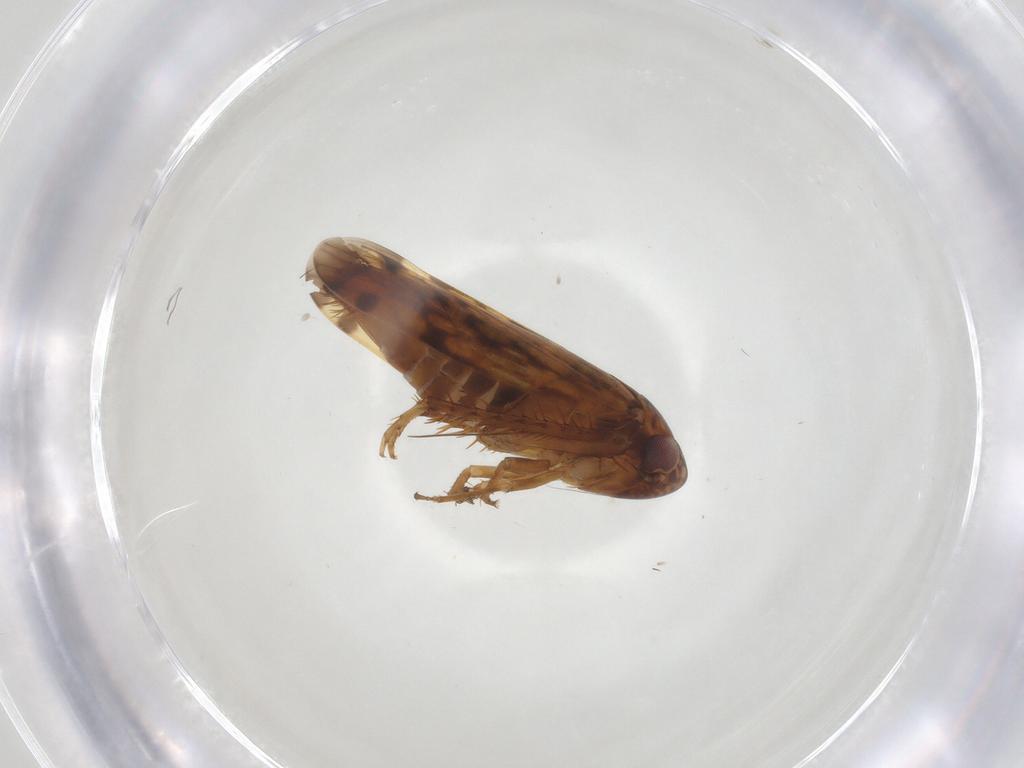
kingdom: Animalia
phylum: Arthropoda
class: Insecta
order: Hemiptera
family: Cicadellidae
